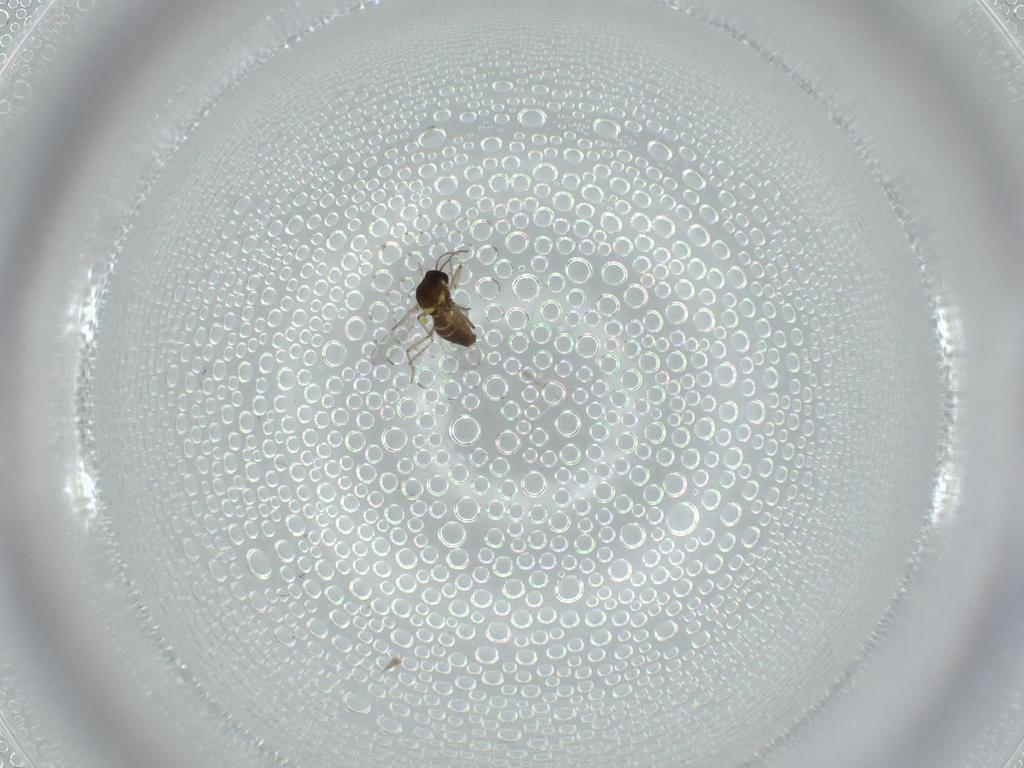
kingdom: Animalia
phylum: Arthropoda
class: Insecta
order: Diptera
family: Ceratopogonidae
